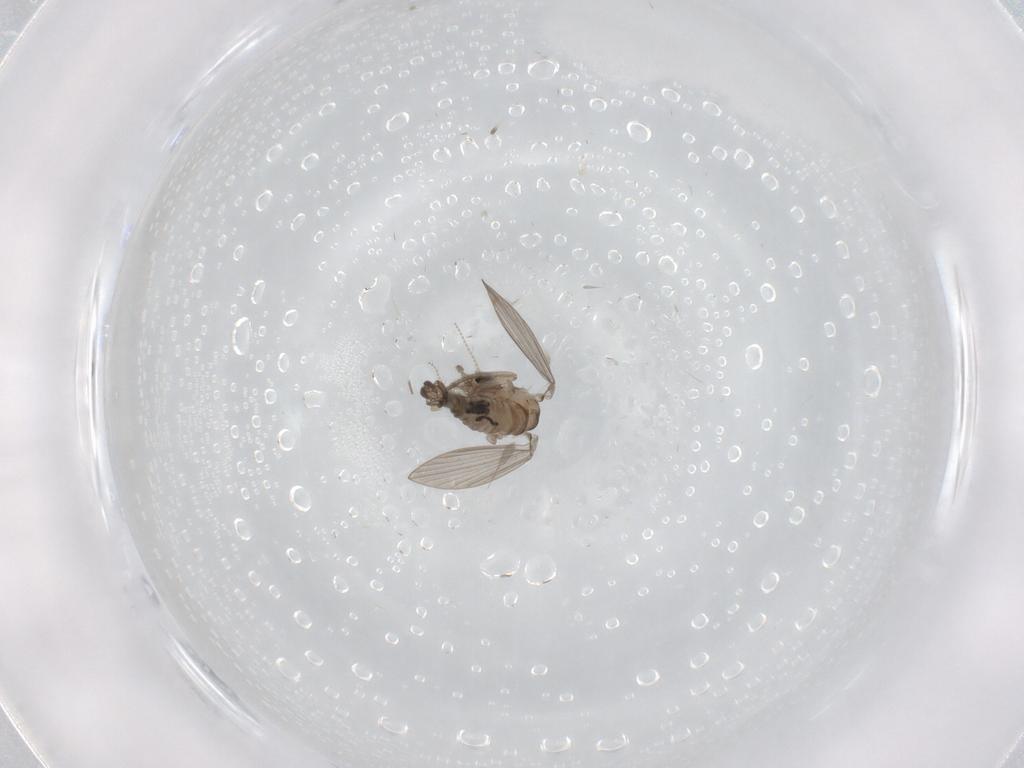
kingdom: Animalia
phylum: Arthropoda
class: Insecta
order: Diptera
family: Psychodidae
